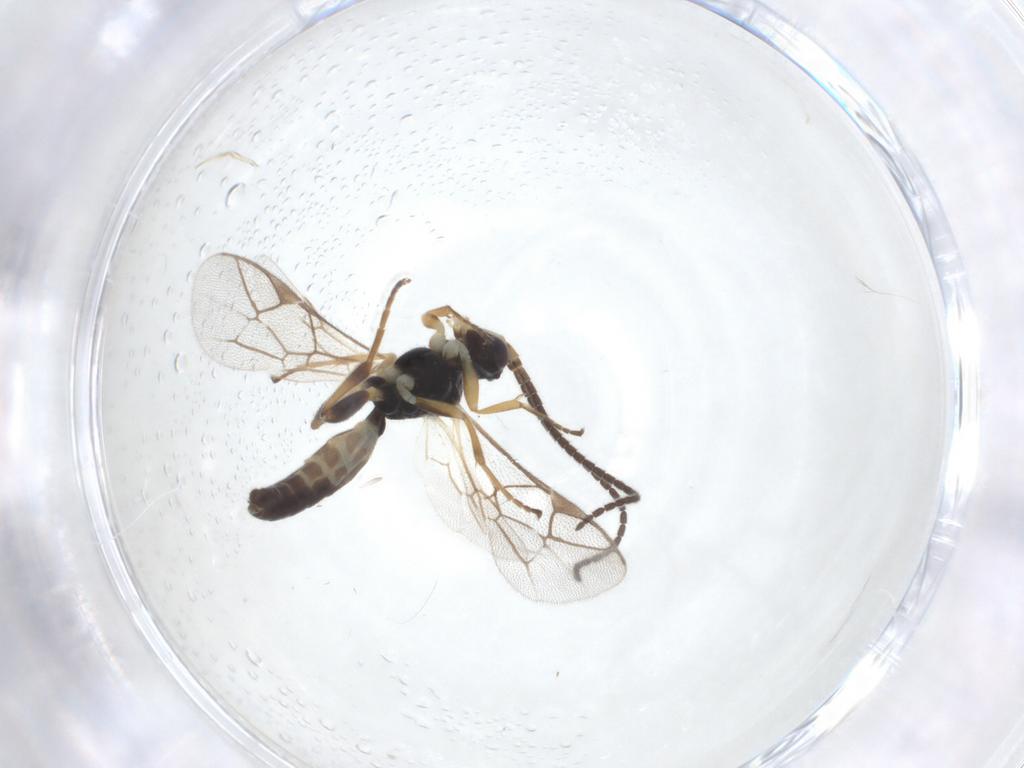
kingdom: Animalia
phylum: Arthropoda
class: Insecta
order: Hymenoptera
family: Ichneumonidae
